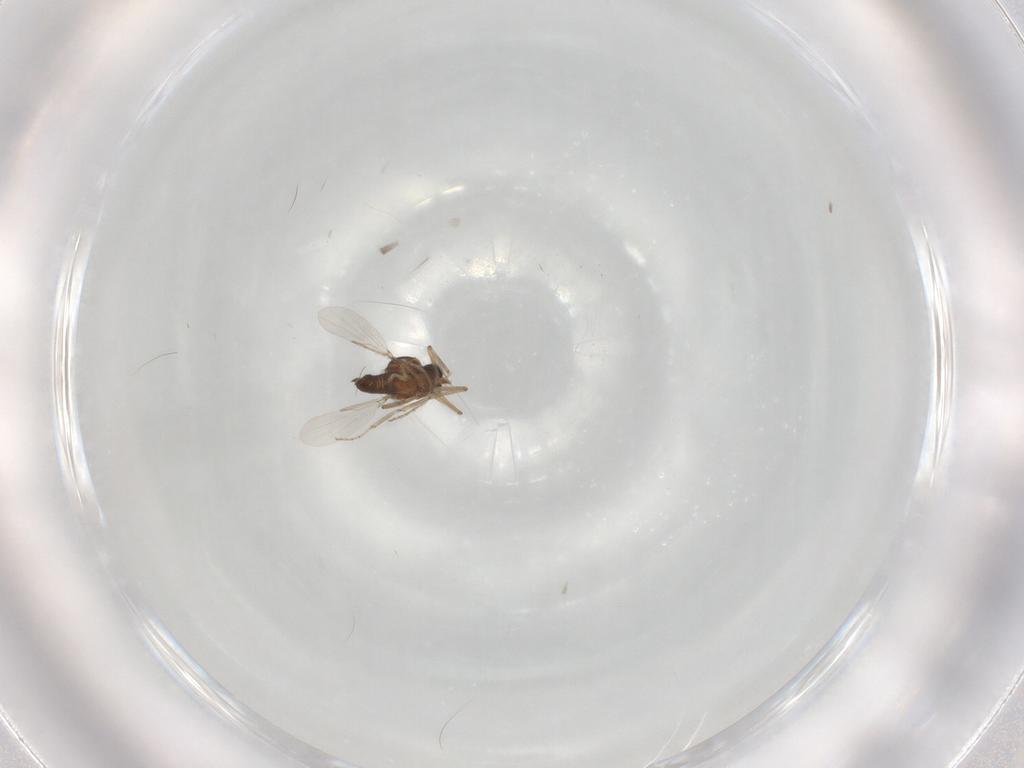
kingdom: Animalia
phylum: Arthropoda
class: Insecta
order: Diptera
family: Ceratopogonidae
